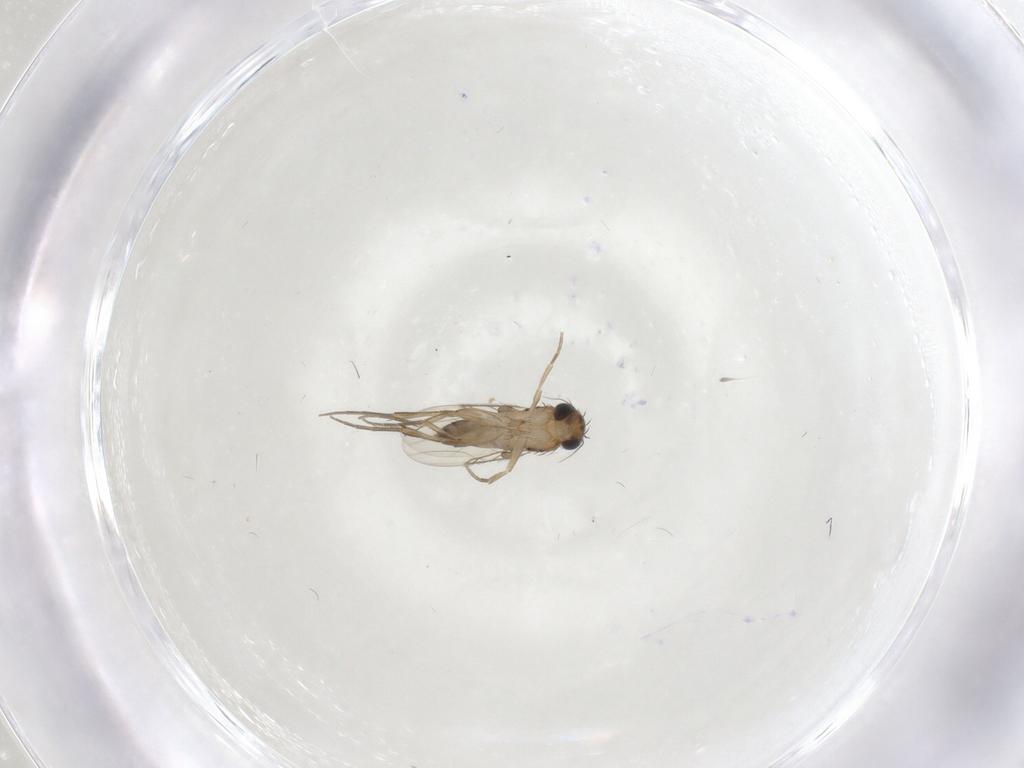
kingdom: Animalia
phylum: Arthropoda
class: Insecta
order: Diptera
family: Phoridae
